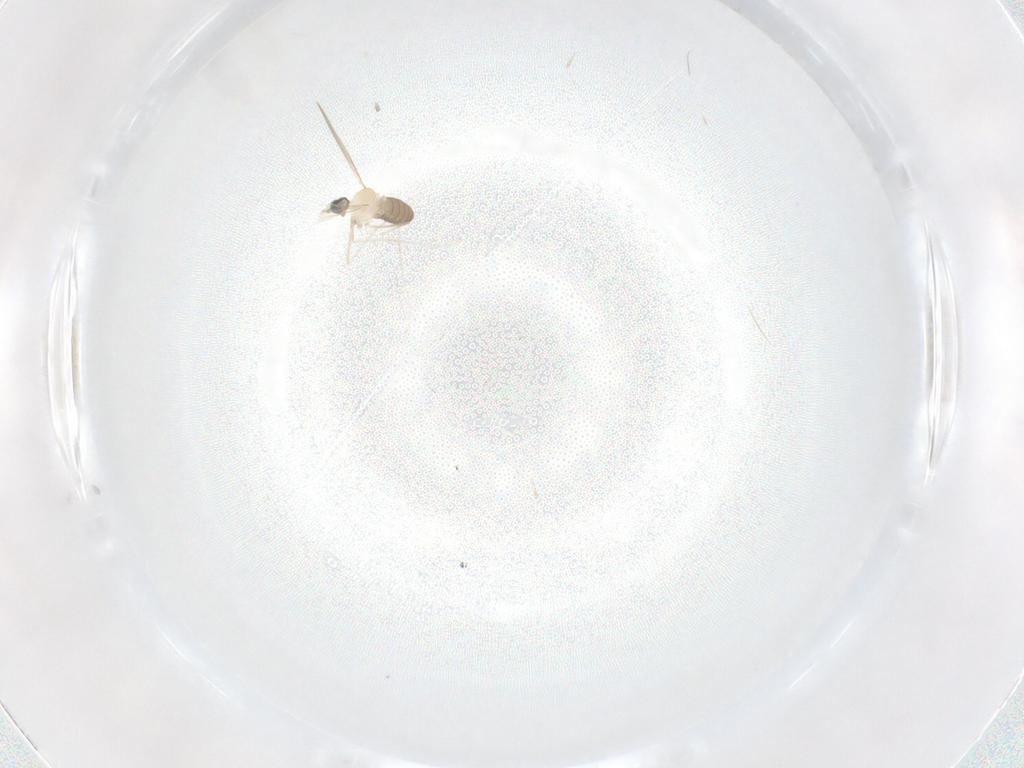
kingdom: Animalia
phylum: Arthropoda
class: Insecta
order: Diptera
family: Cecidomyiidae
